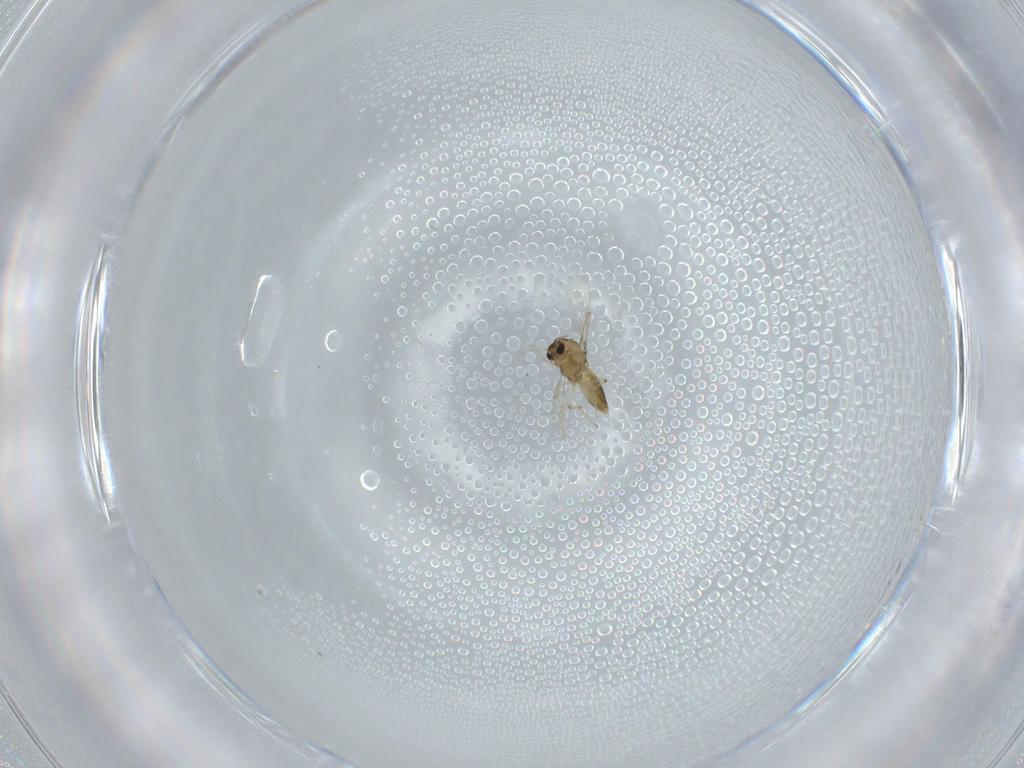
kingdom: Animalia
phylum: Arthropoda
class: Insecta
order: Diptera
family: Chironomidae
